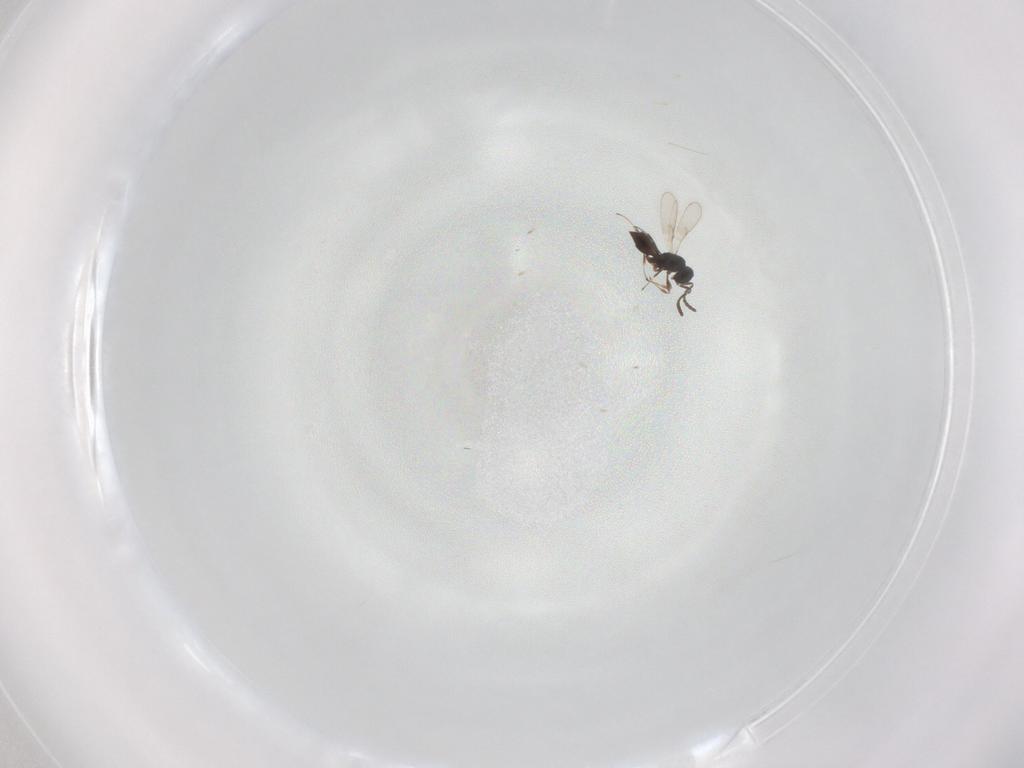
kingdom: Animalia
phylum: Arthropoda
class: Insecta
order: Hymenoptera
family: Scelionidae
